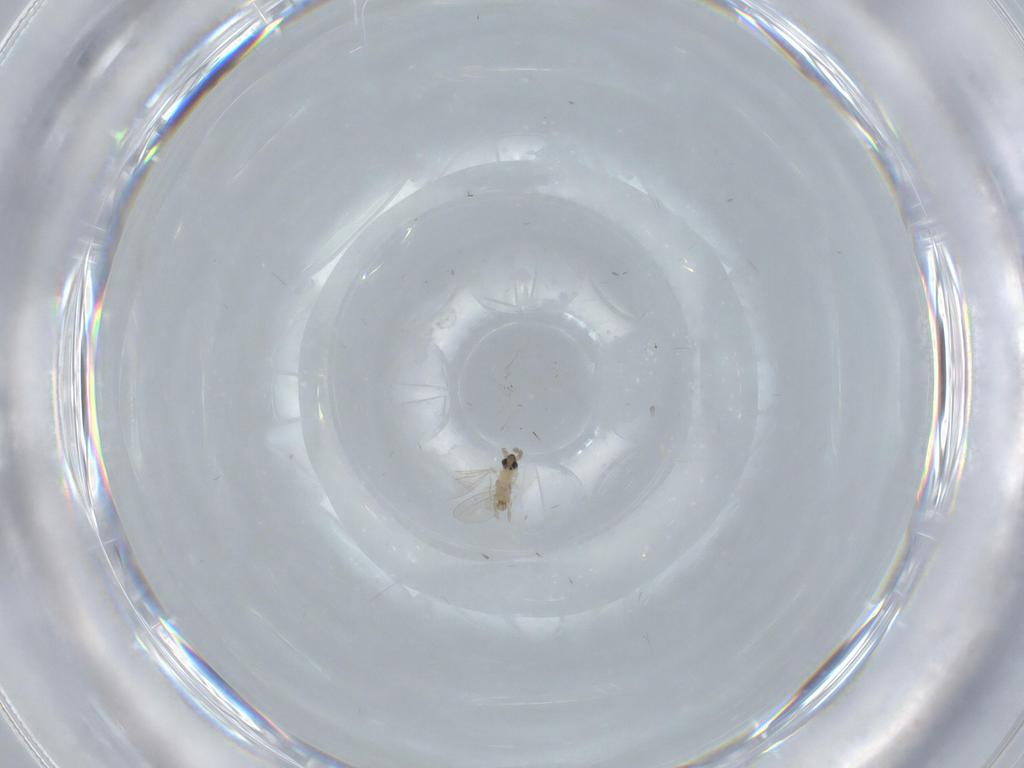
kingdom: Animalia
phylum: Arthropoda
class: Insecta
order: Diptera
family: Cecidomyiidae
